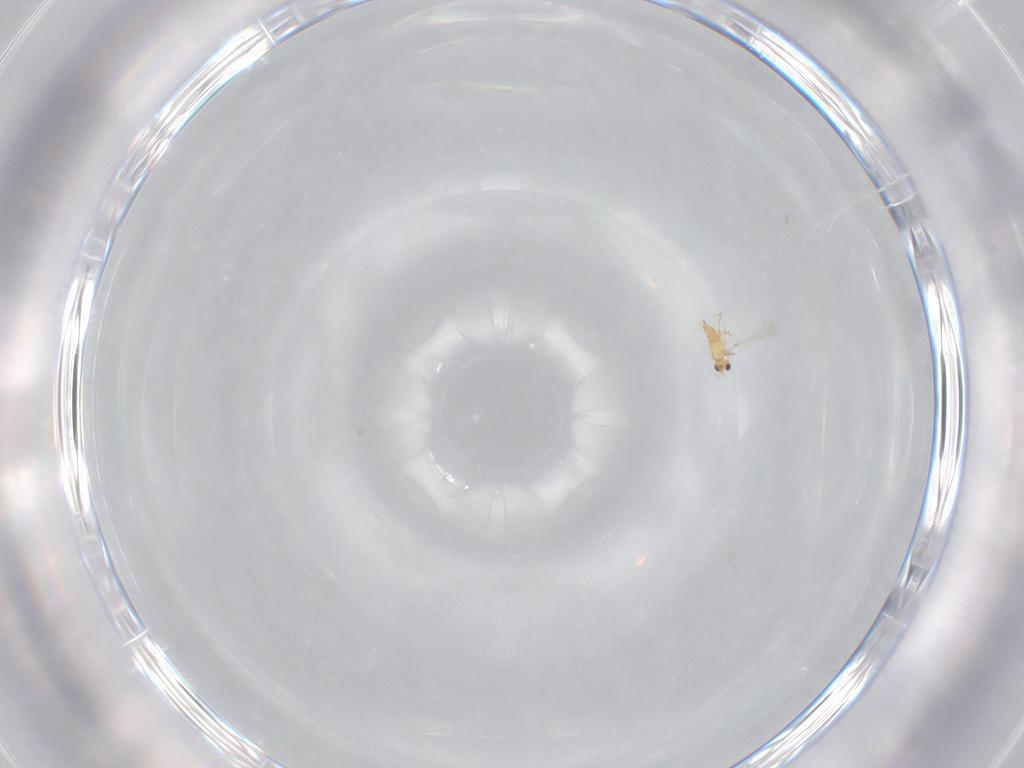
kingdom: Animalia
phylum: Arthropoda
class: Insecta
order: Hymenoptera
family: Mymaridae
